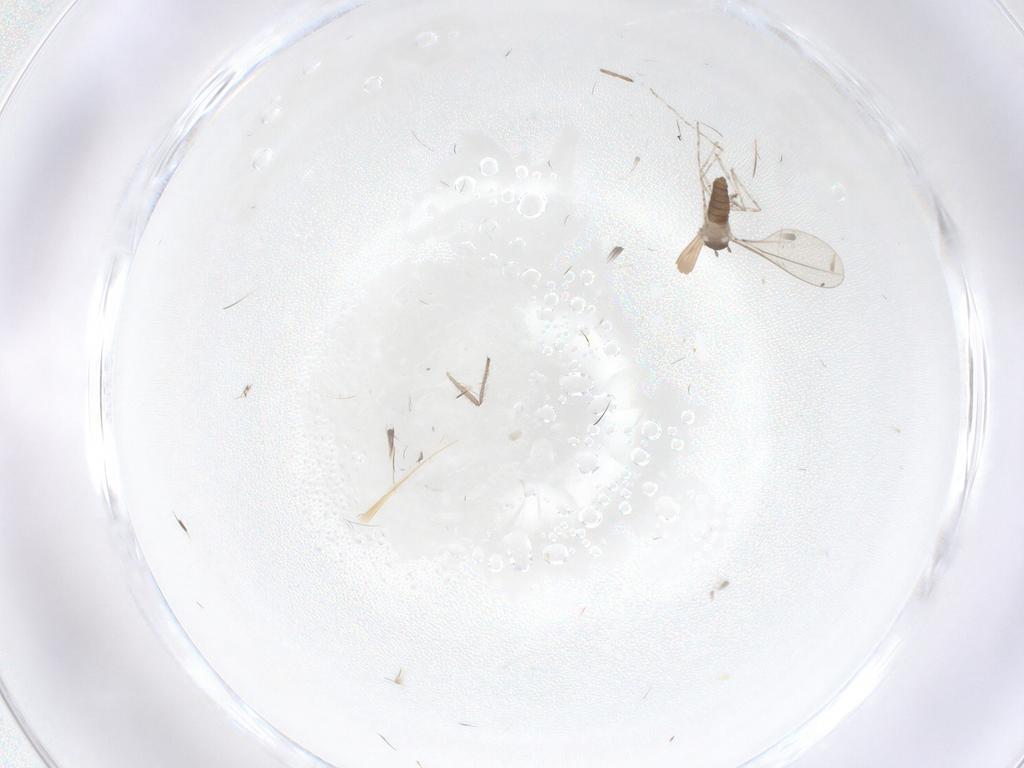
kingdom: Animalia
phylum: Arthropoda
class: Insecta
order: Diptera
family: Cecidomyiidae
